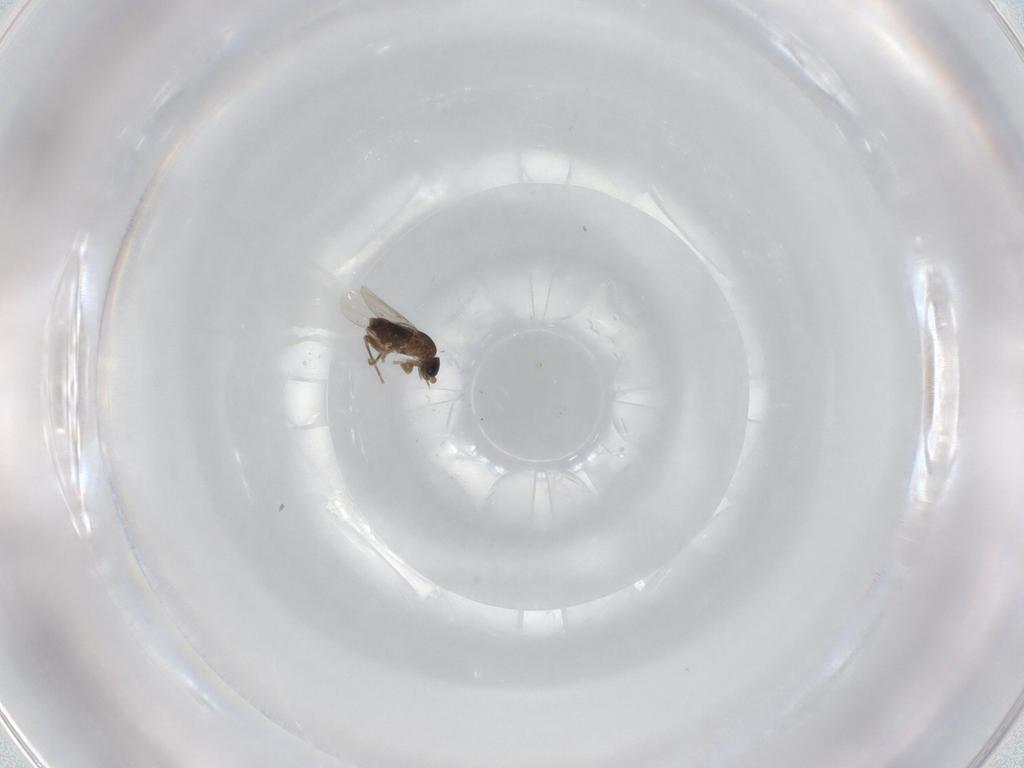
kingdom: Animalia
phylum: Arthropoda
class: Insecta
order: Diptera
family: Phoridae
